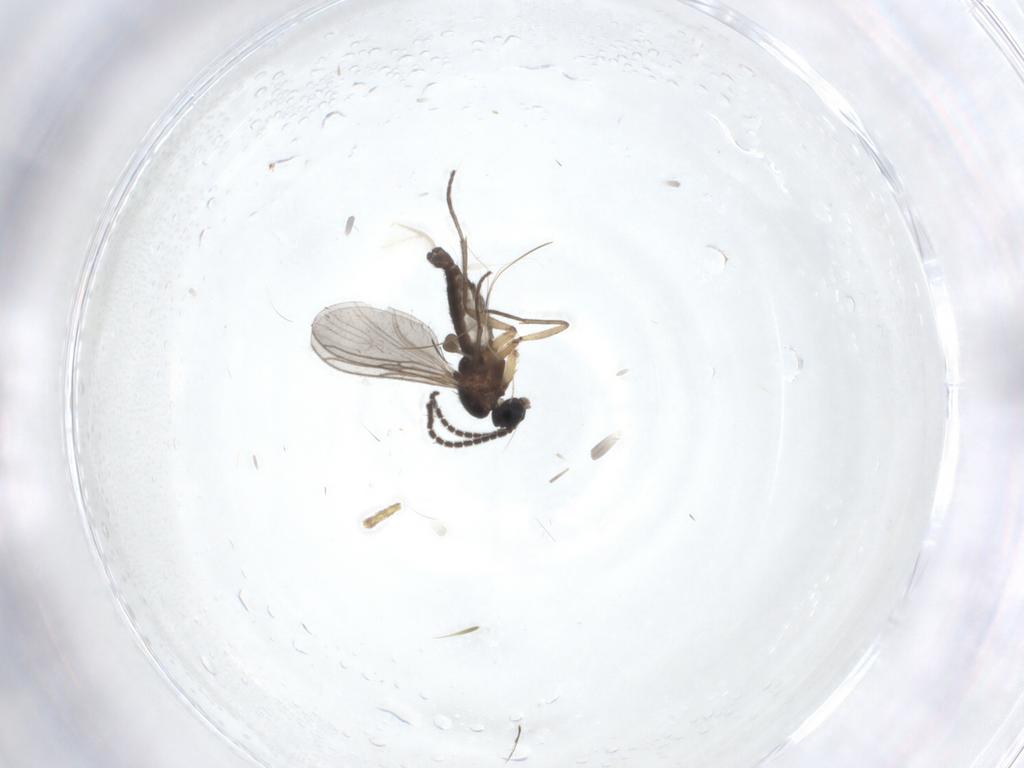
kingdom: Animalia
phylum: Arthropoda
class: Insecta
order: Diptera
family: Sciaridae
